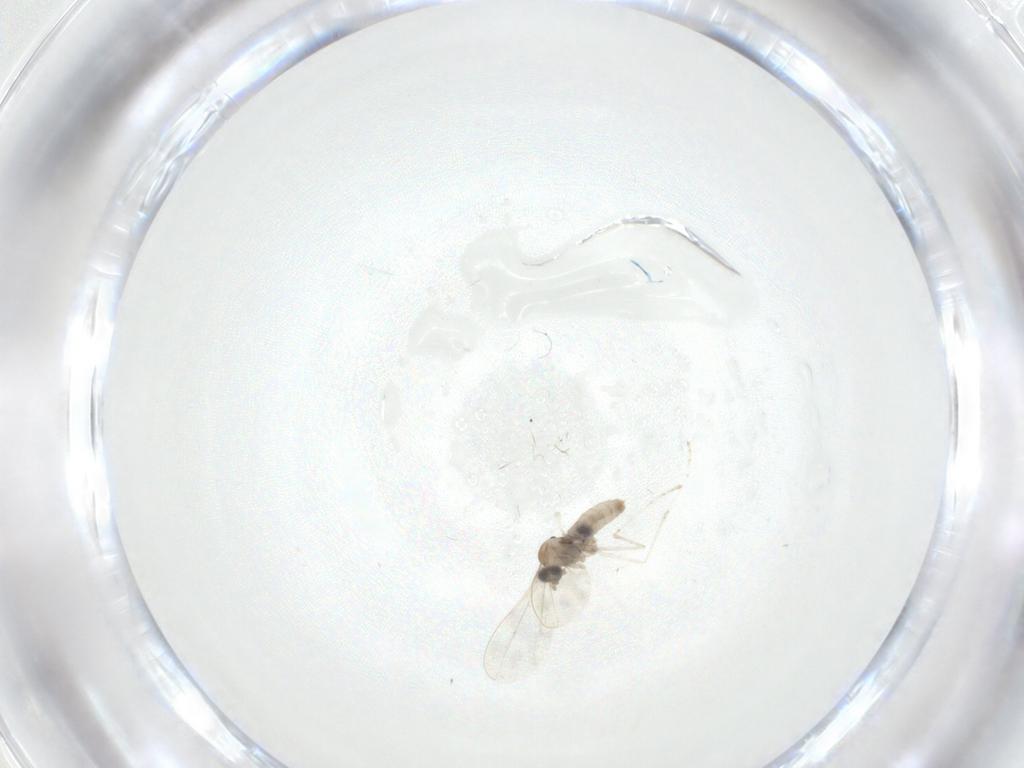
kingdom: Animalia
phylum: Arthropoda
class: Insecta
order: Diptera
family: Cecidomyiidae
